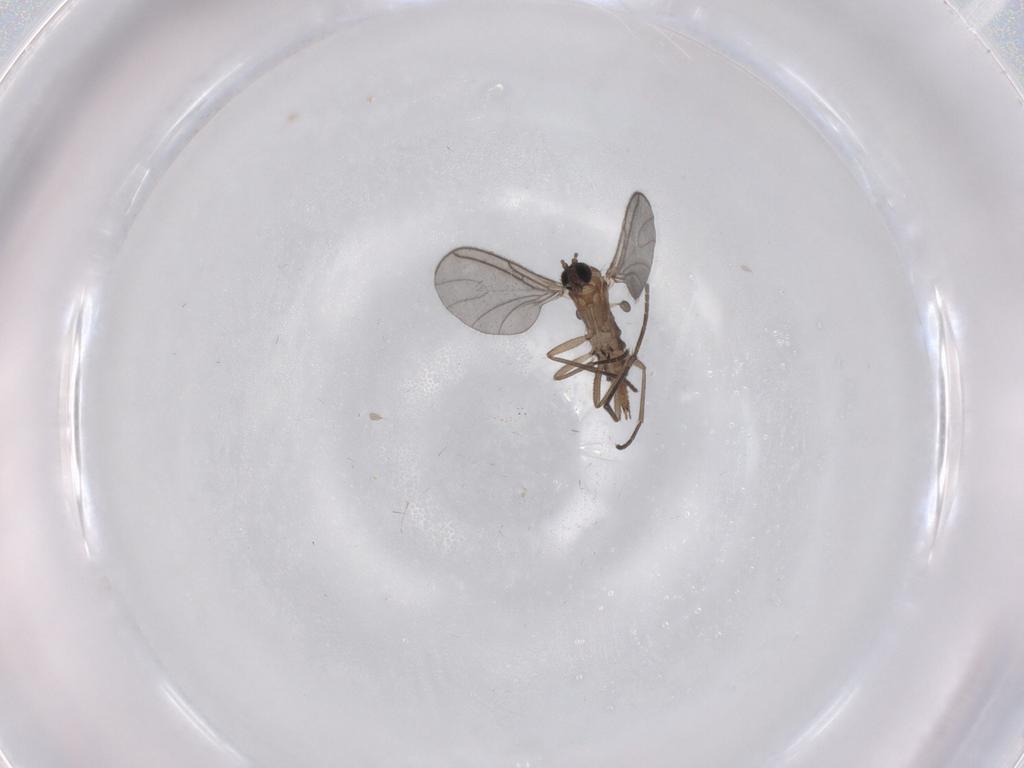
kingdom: Animalia
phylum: Arthropoda
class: Insecta
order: Diptera
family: Sciaridae
